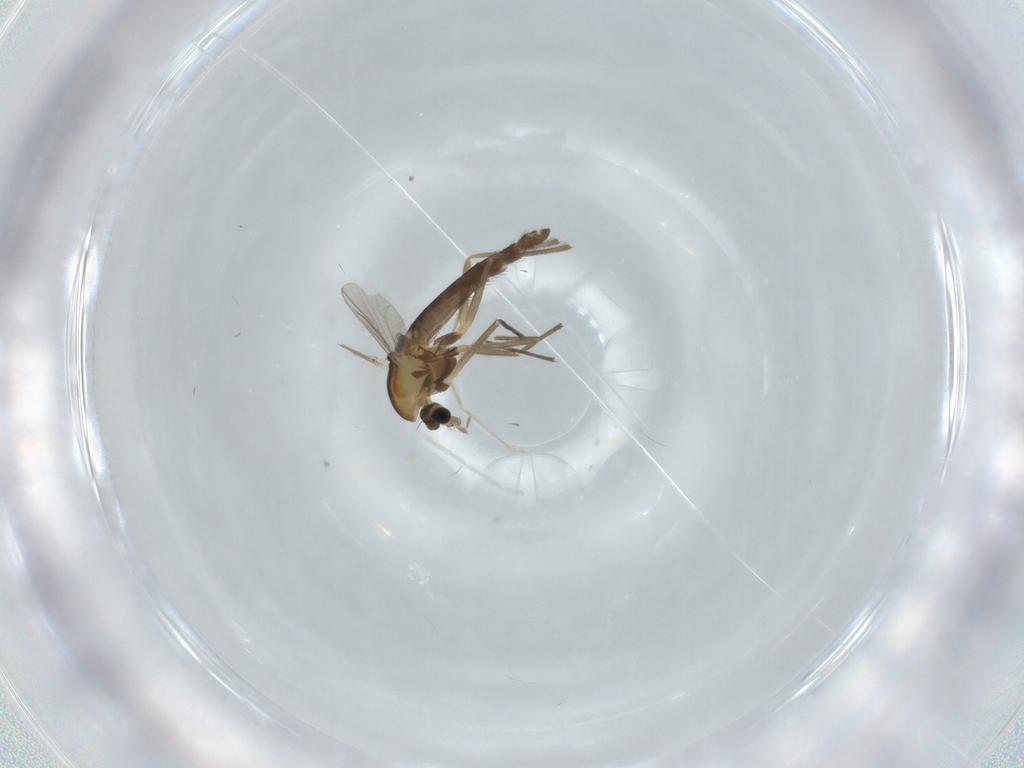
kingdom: Animalia
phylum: Arthropoda
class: Insecta
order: Diptera
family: Chironomidae
